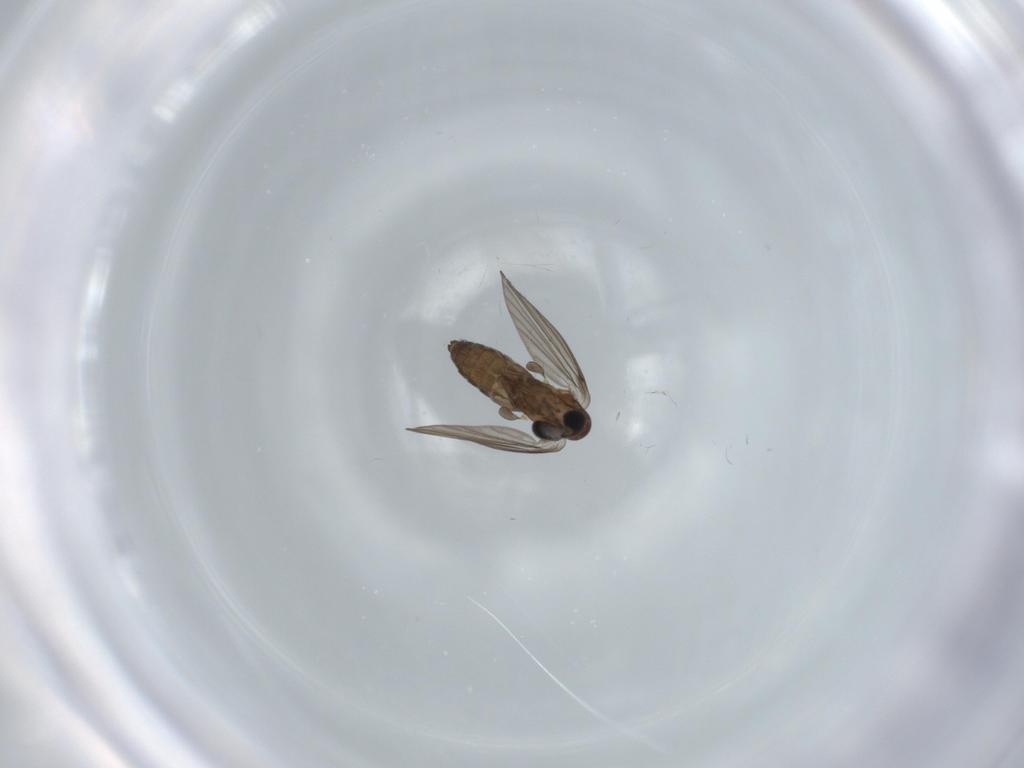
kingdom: Animalia
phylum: Arthropoda
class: Insecta
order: Diptera
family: Psychodidae
